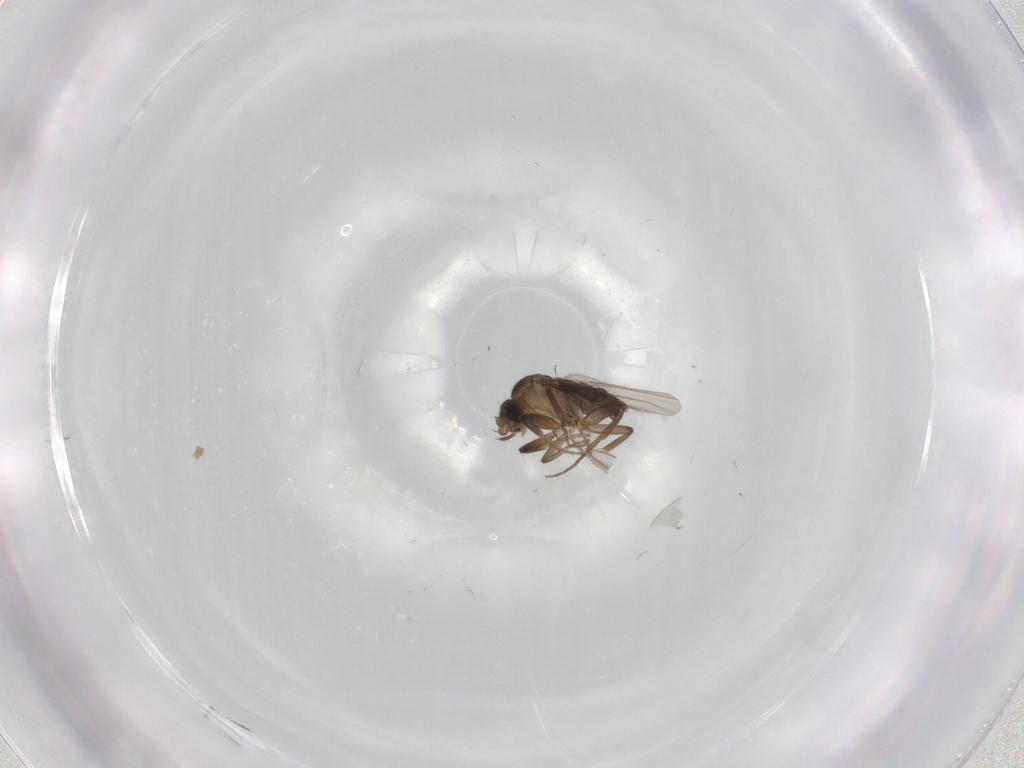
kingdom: Animalia
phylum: Arthropoda
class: Insecta
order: Diptera
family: Phoridae
